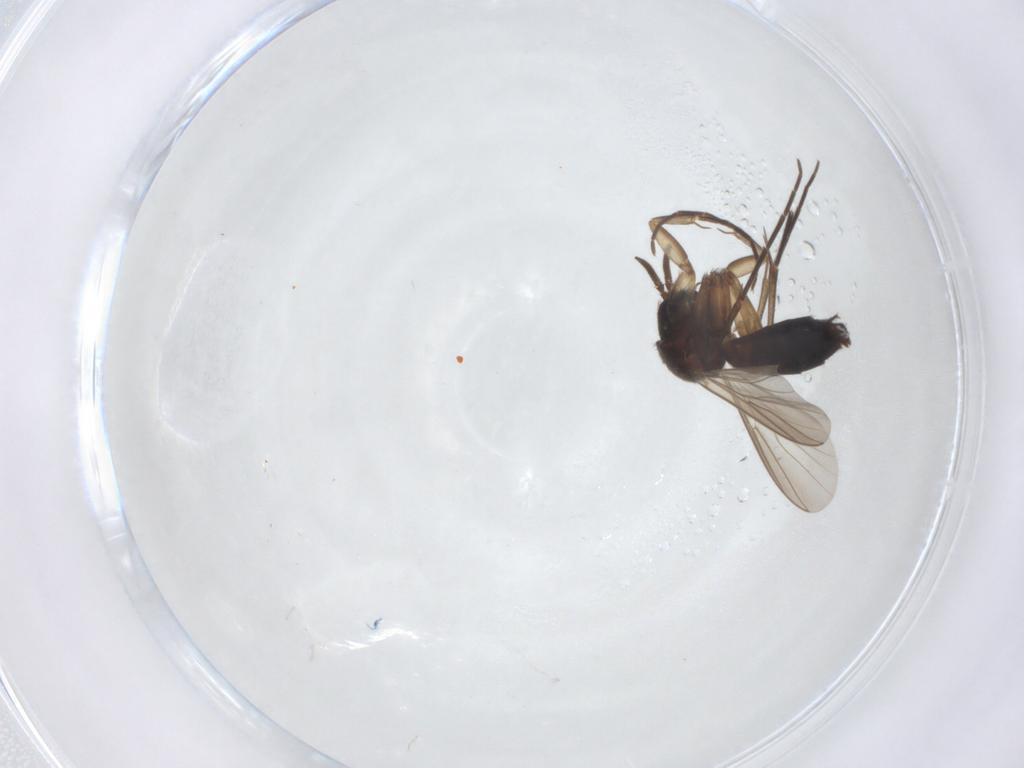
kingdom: Animalia
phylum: Arthropoda
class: Insecta
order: Diptera
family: Mycetophilidae
